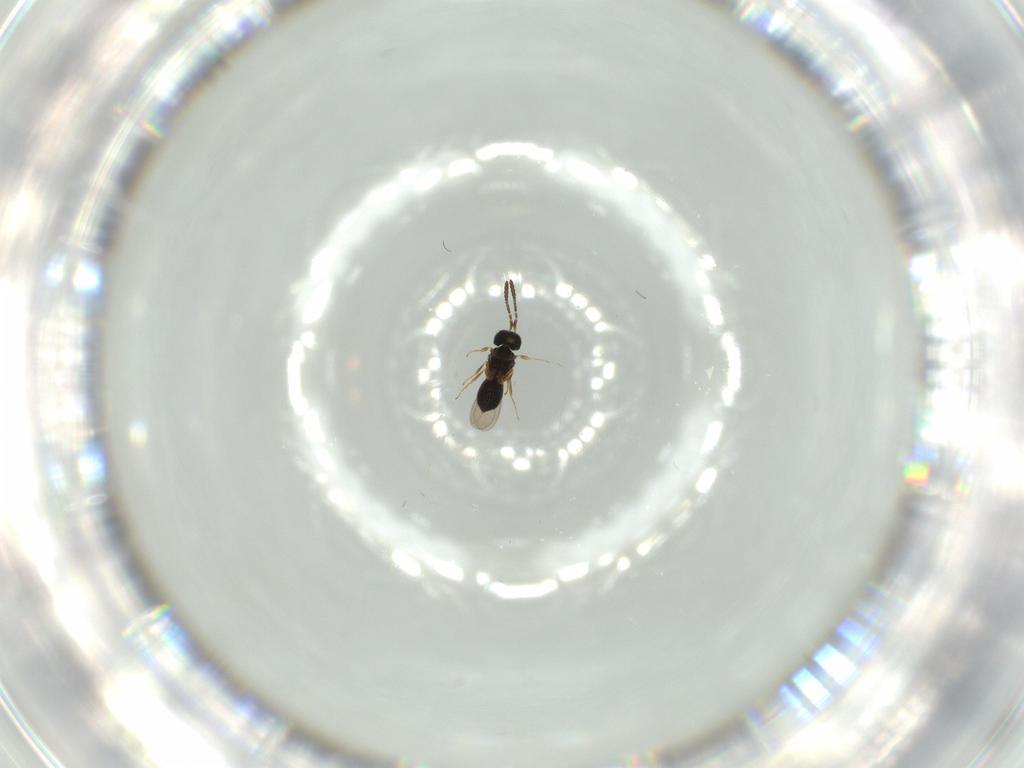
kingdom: Animalia
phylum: Arthropoda
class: Insecta
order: Hymenoptera
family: Scelionidae
